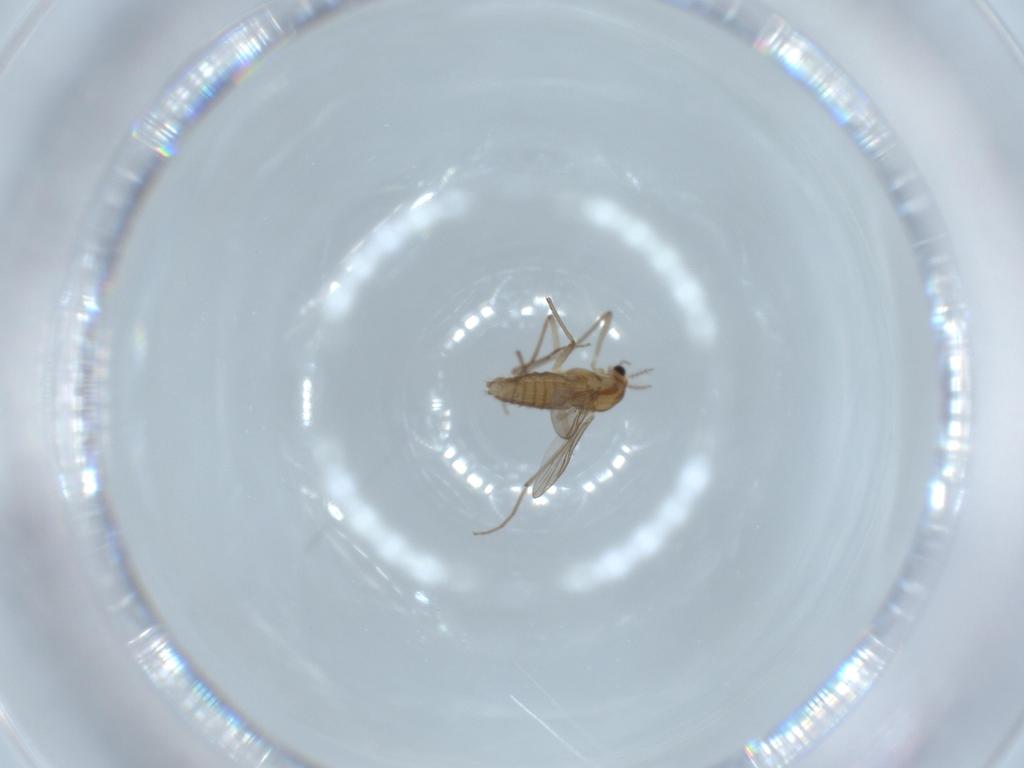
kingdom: Animalia
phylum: Arthropoda
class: Insecta
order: Diptera
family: Chironomidae
